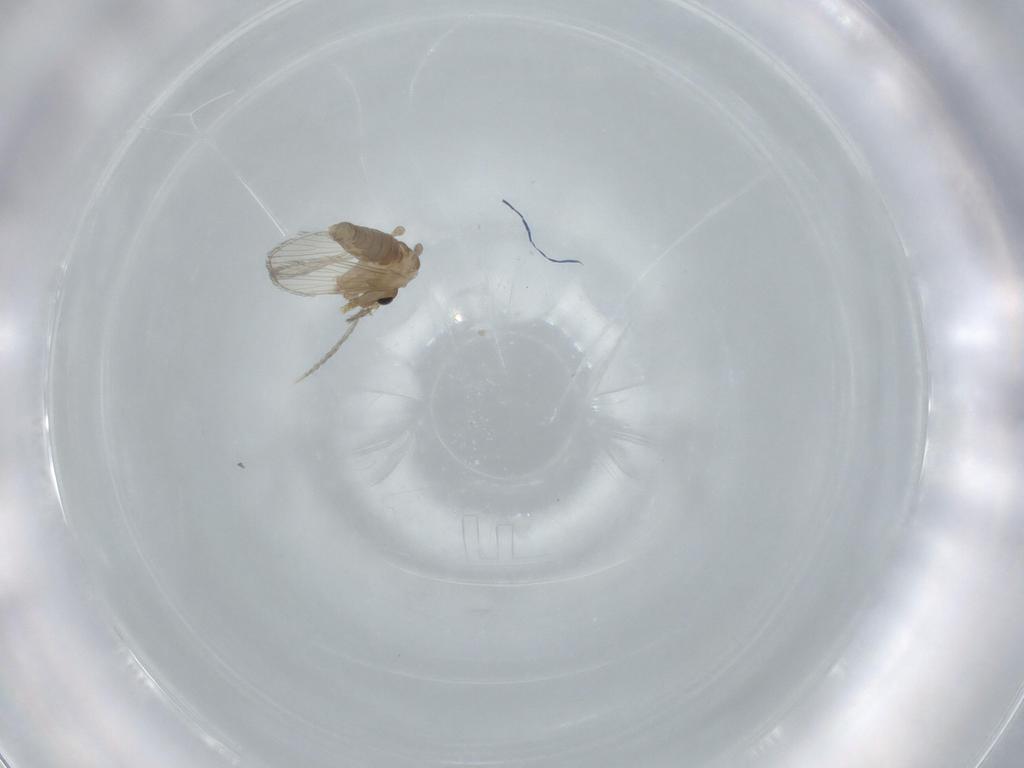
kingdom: Animalia
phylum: Arthropoda
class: Insecta
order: Diptera
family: Psychodidae
